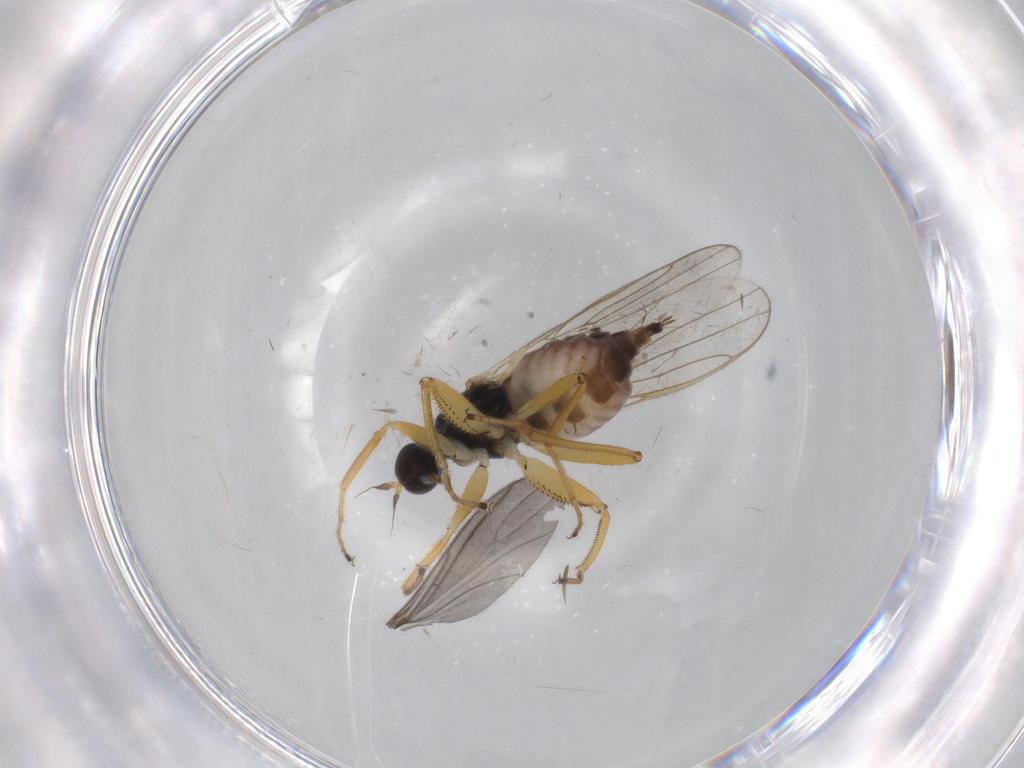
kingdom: Animalia
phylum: Arthropoda
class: Insecta
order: Diptera
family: Hybotidae
